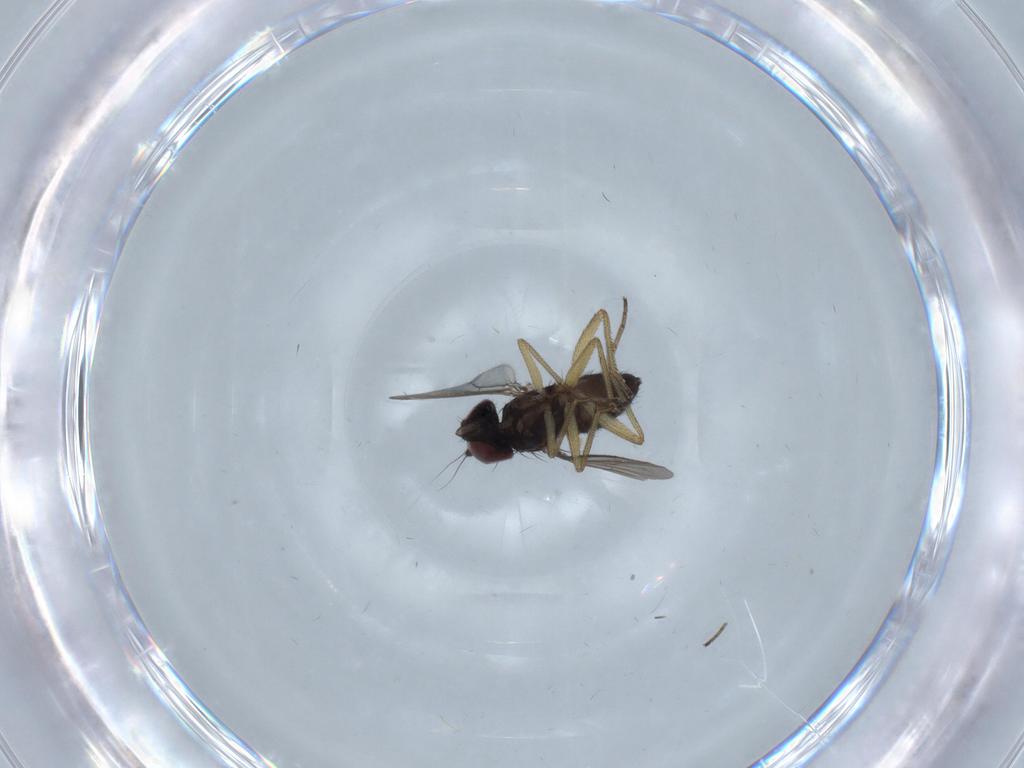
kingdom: Animalia
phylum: Arthropoda
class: Insecta
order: Diptera
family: Dolichopodidae
